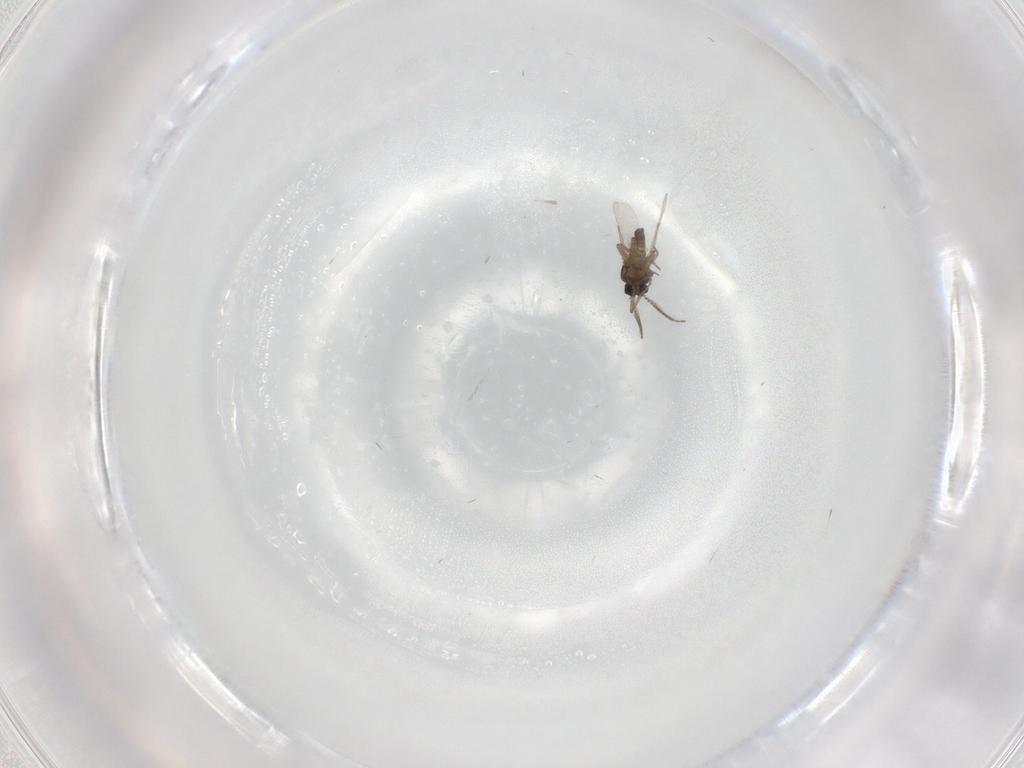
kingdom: Animalia
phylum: Arthropoda
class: Insecta
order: Diptera
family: Ceratopogonidae
